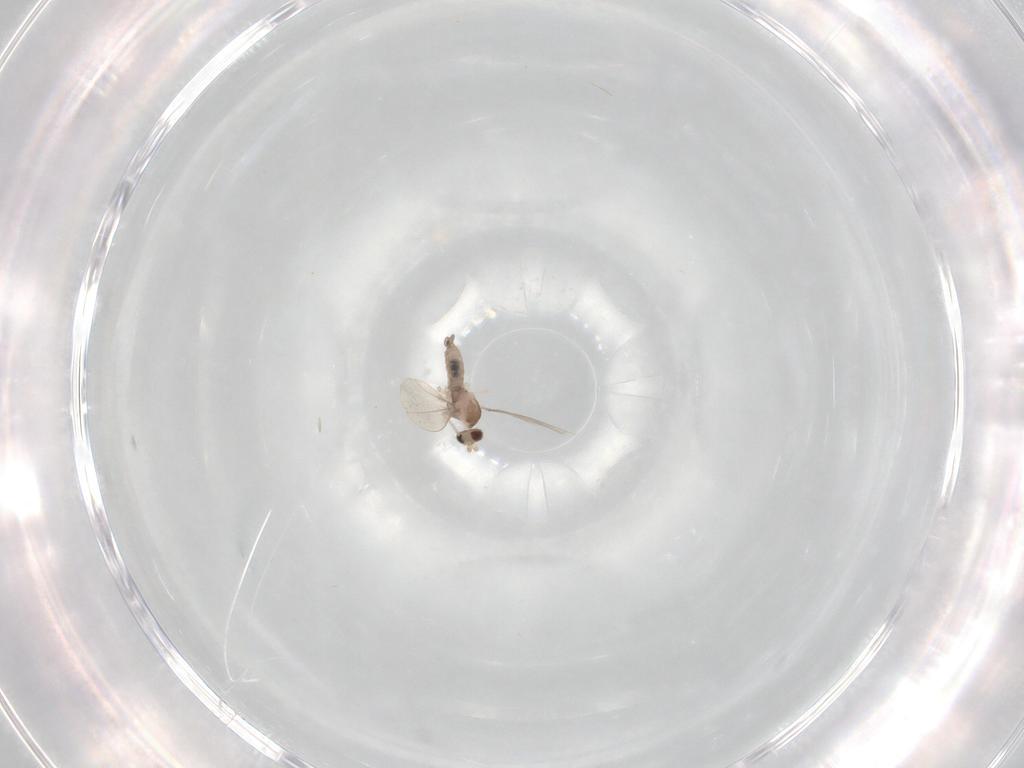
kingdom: Animalia
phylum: Arthropoda
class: Insecta
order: Diptera
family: Cecidomyiidae
